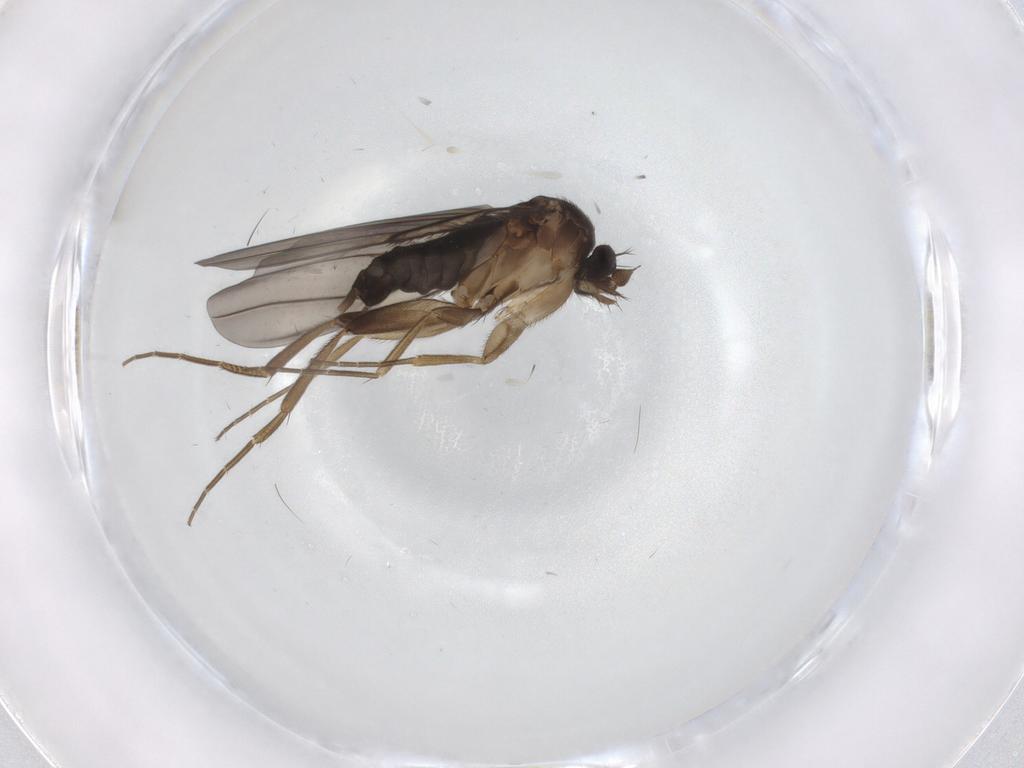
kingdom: Animalia
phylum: Arthropoda
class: Insecta
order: Diptera
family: Phoridae
